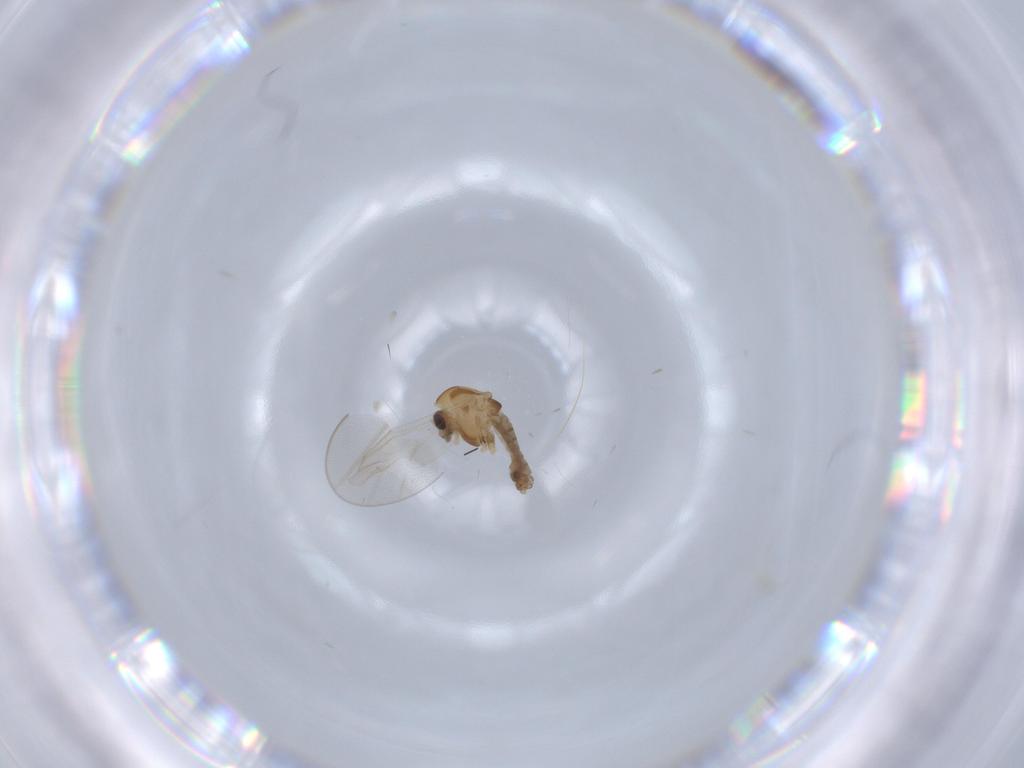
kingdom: Animalia
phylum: Arthropoda
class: Insecta
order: Diptera
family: Chironomidae
